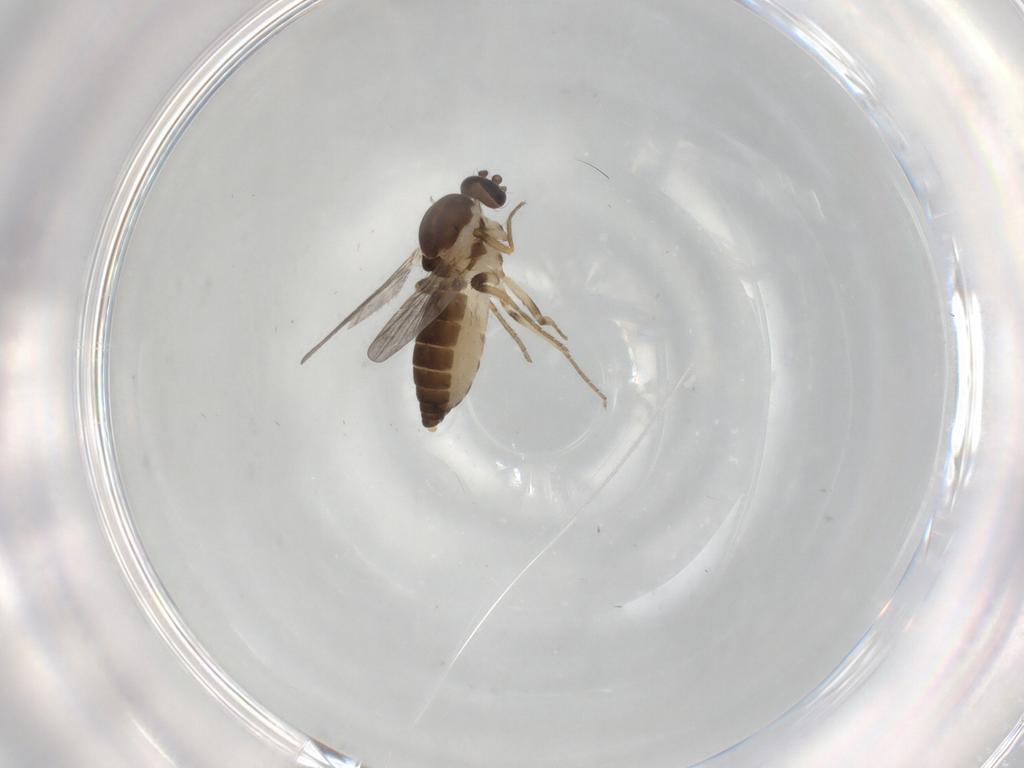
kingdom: Animalia
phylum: Arthropoda
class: Insecta
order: Diptera
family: Ceratopogonidae
